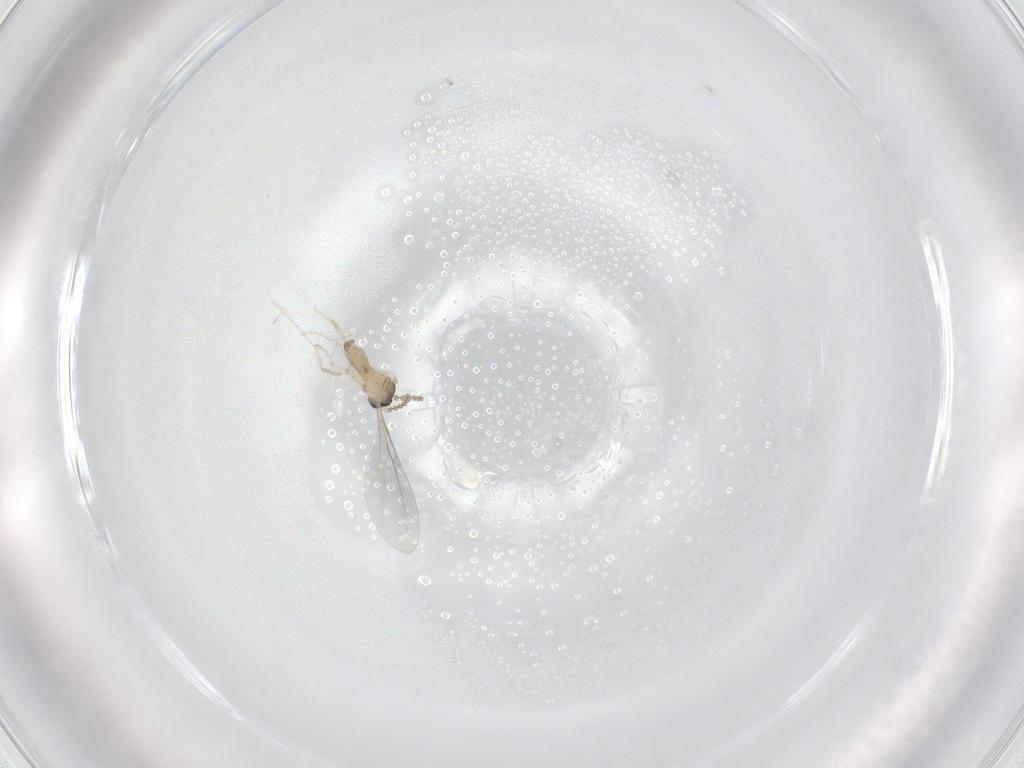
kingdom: Animalia
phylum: Arthropoda
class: Insecta
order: Diptera
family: Cecidomyiidae
